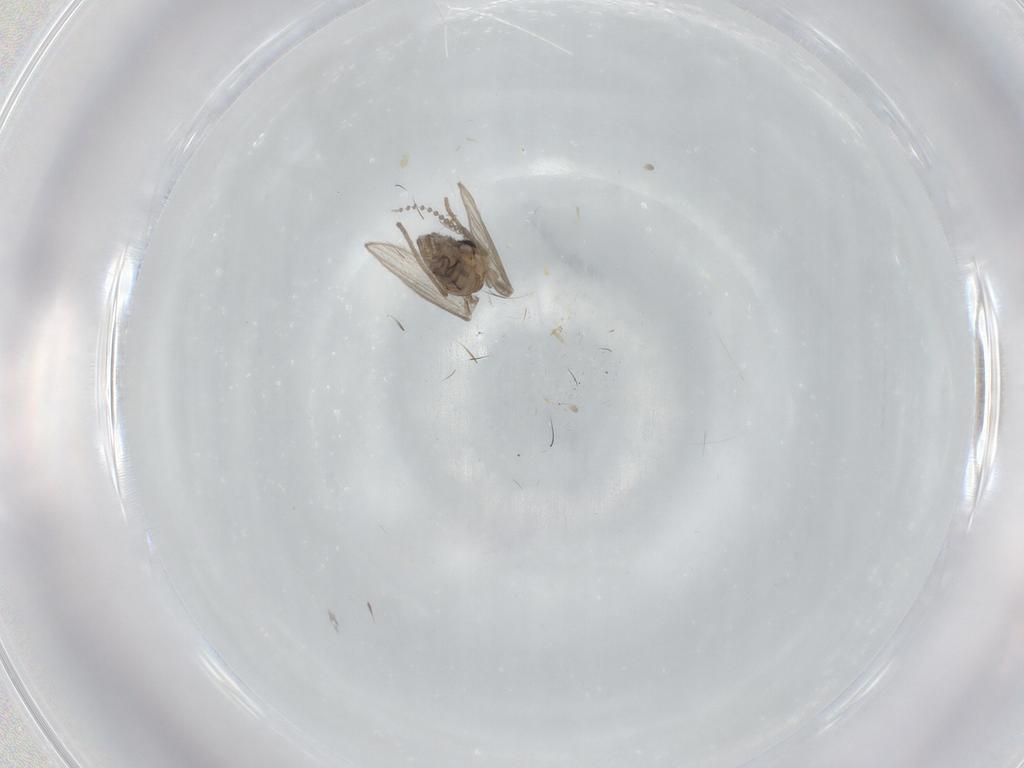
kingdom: Animalia
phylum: Arthropoda
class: Insecta
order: Diptera
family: Psychodidae
